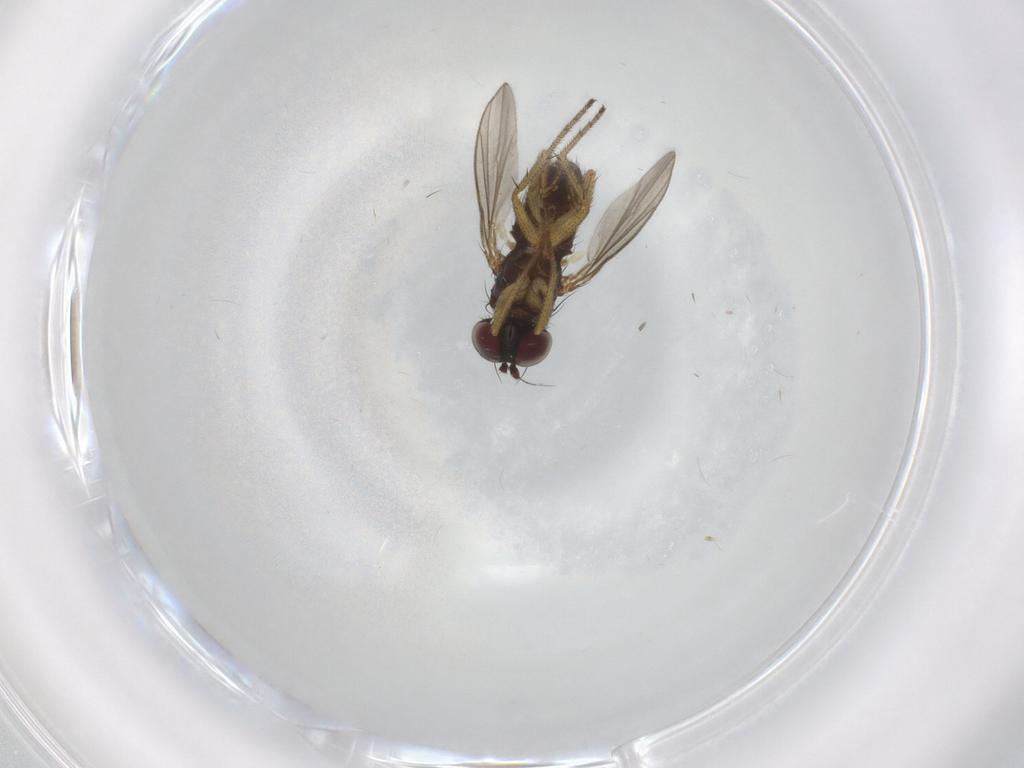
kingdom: Animalia
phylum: Arthropoda
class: Insecta
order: Diptera
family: Dolichopodidae
